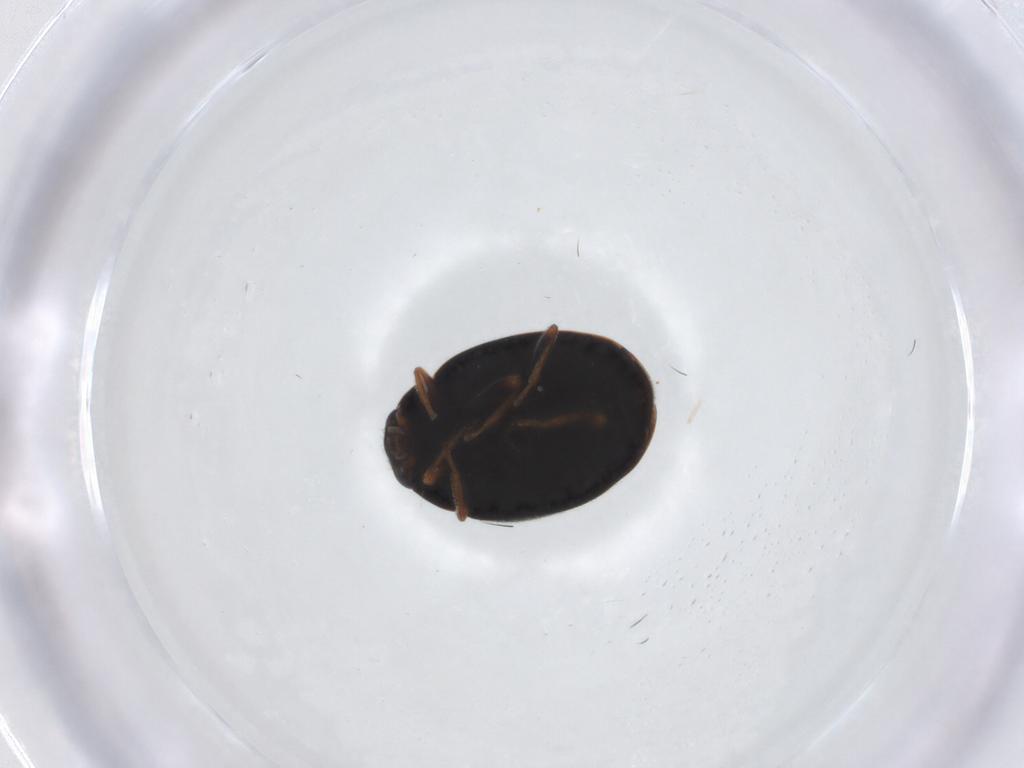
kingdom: Animalia
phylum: Arthropoda
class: Insecta
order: Coleoptera
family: Coccinellidae
